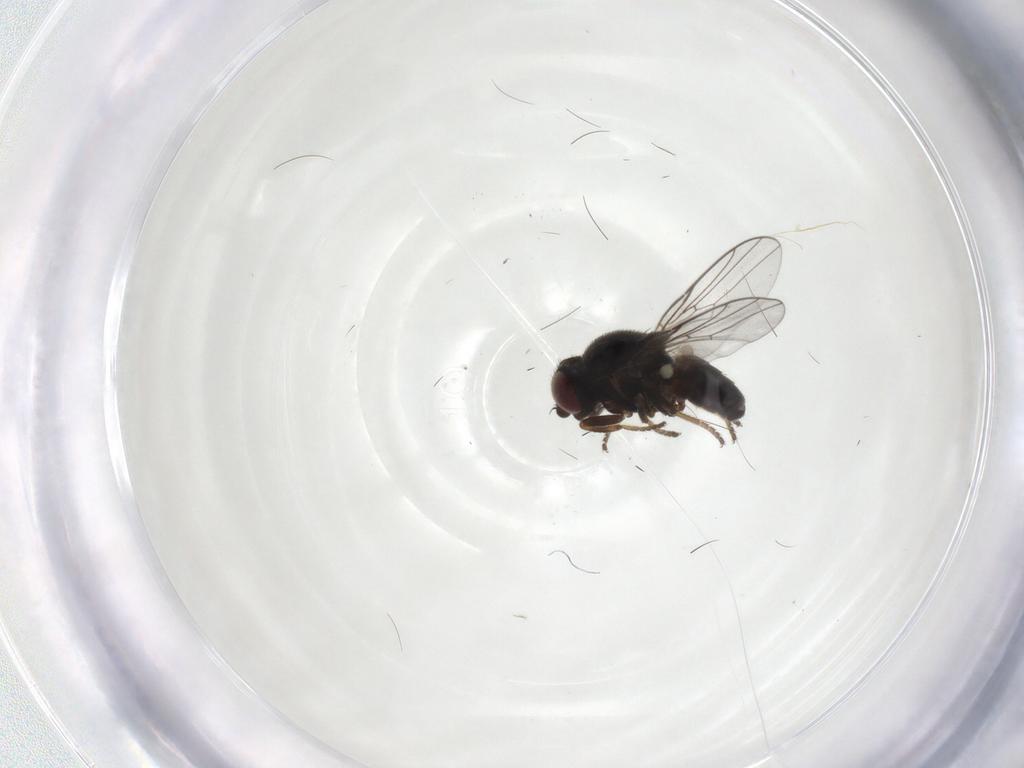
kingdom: Animalia
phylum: Arthropoda
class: Insecta
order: Diptera
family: Chloropidae
